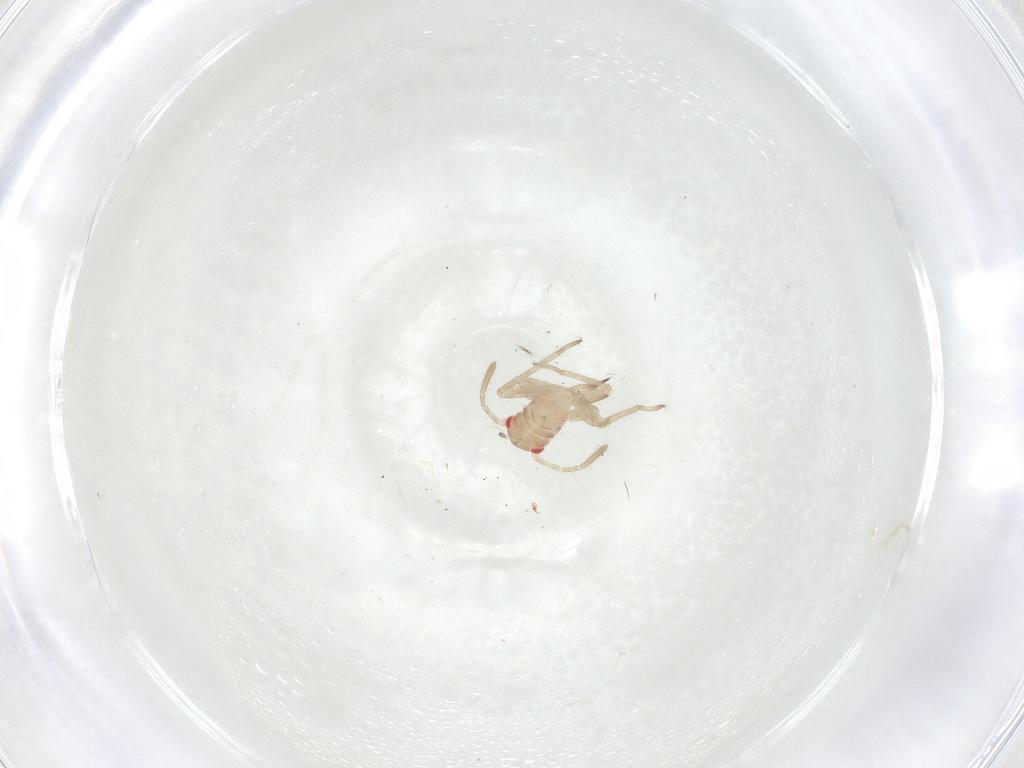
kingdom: Animalia
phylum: Arthropoda
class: Insecta
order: Hemiptera
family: Miridae
